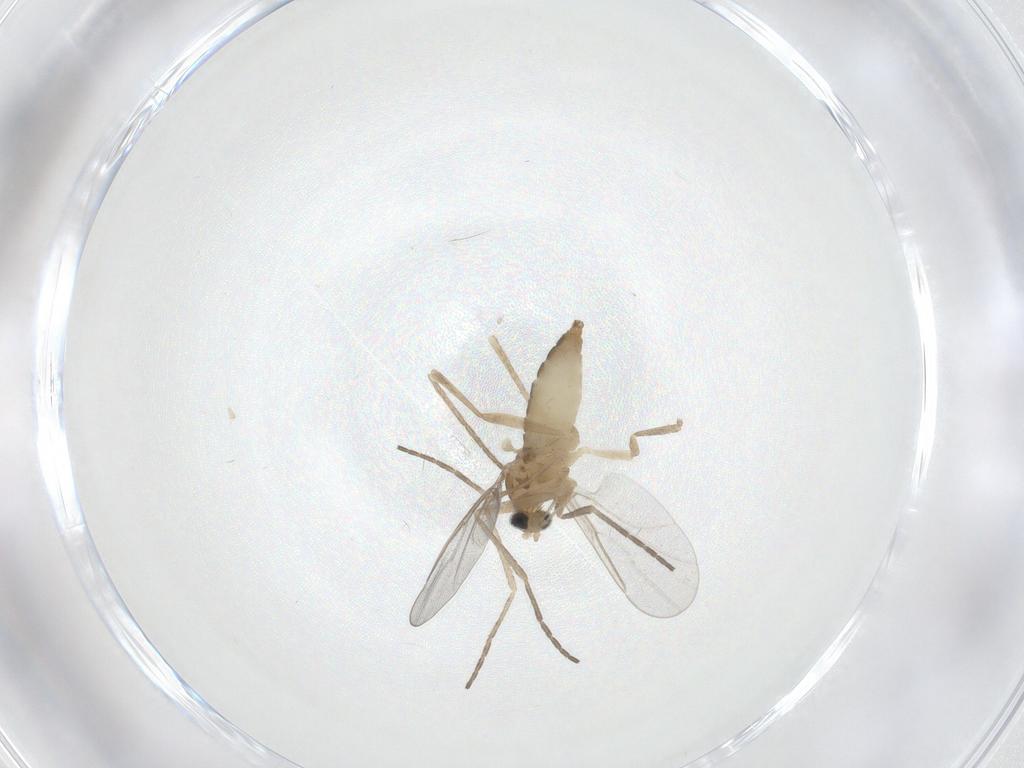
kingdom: Animalia
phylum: Arthropoda
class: Insecta
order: Diptera
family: Cecidomyiidae
